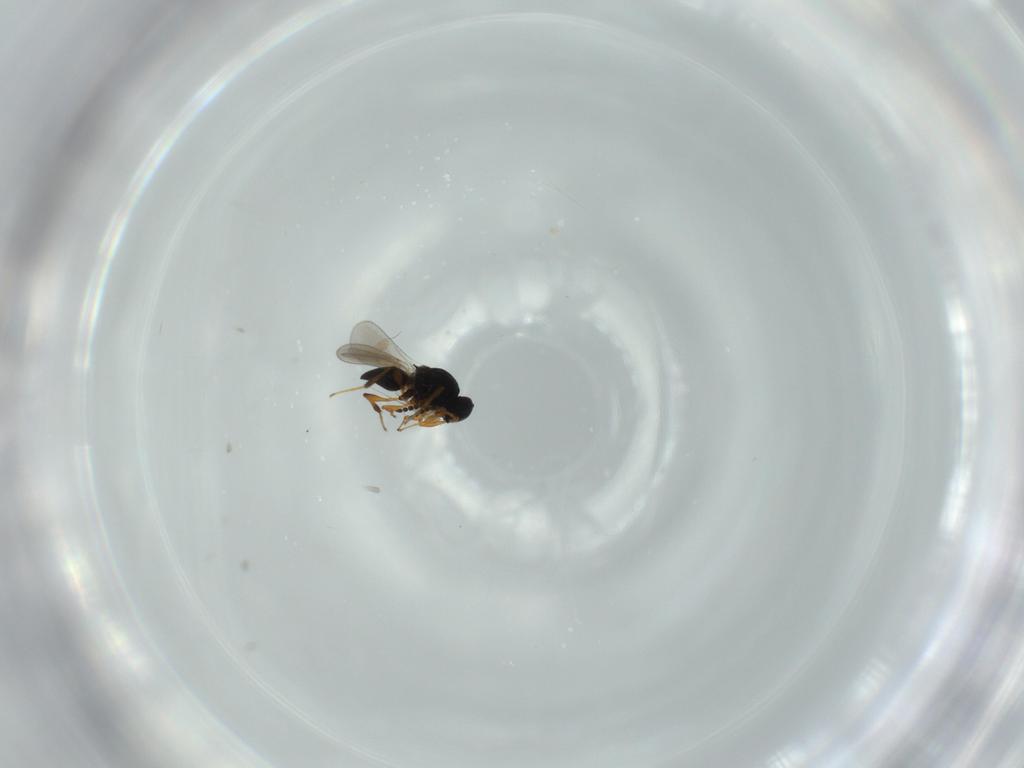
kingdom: Animalia
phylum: Arthropoda
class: Insecta
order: Hymenoptera
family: Platygastridae
